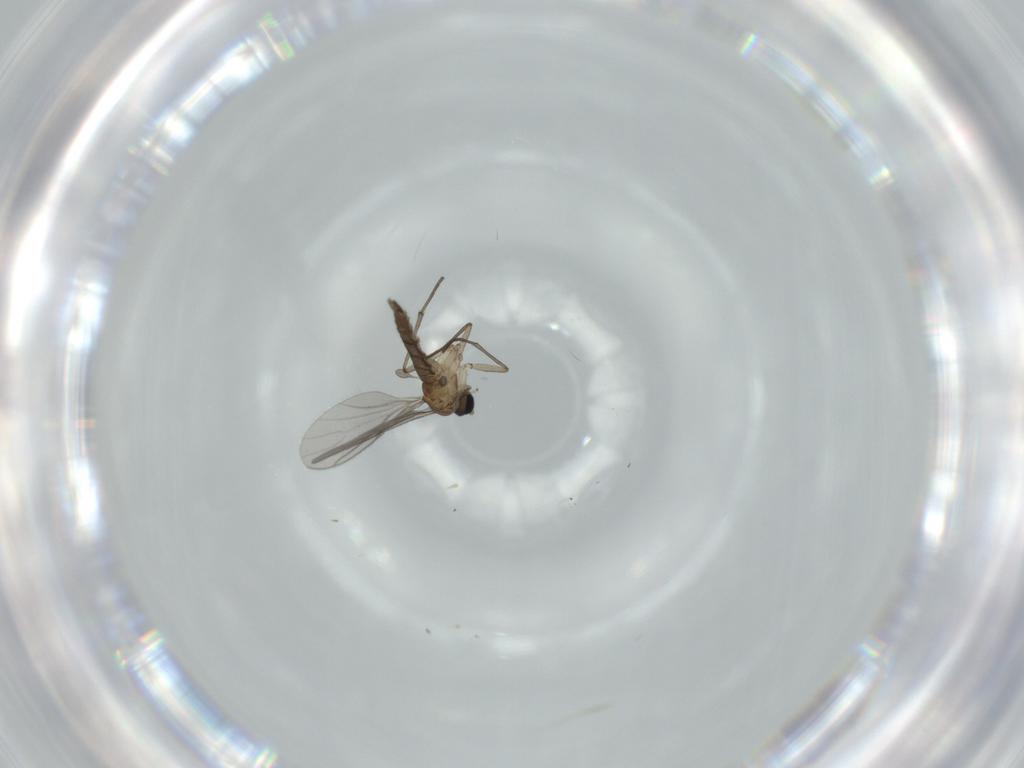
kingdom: Animalia
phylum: Arthropoda
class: Insecta
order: Diptera
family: Sciaridae
